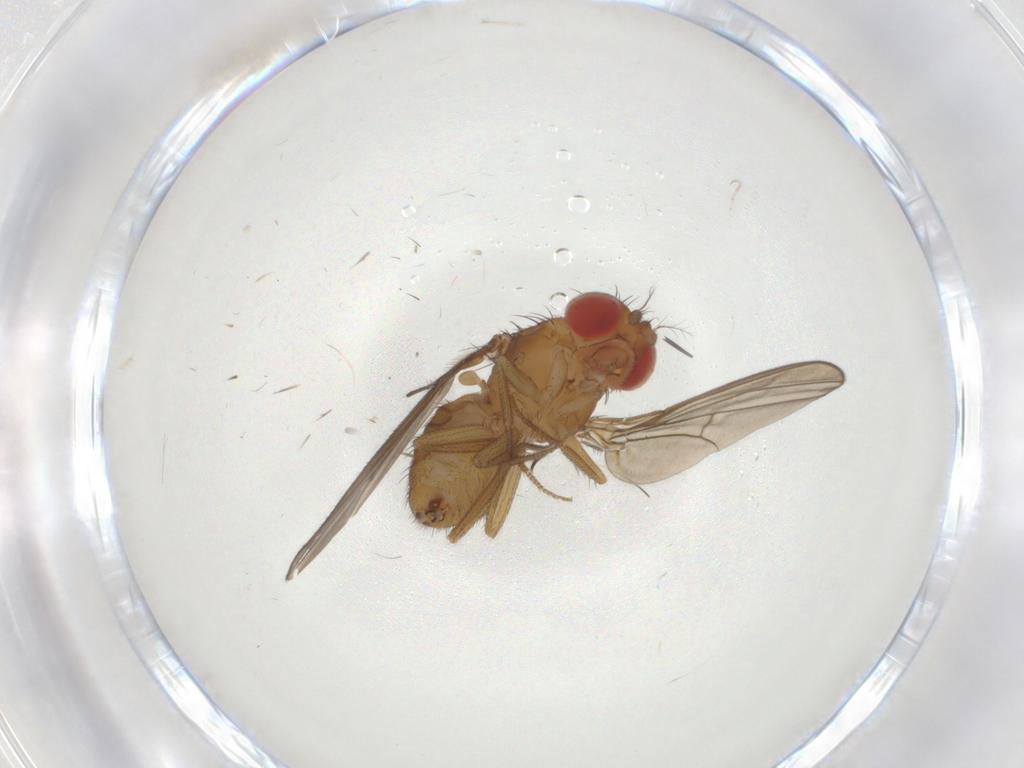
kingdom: Animalia
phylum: Arthropoda
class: Insecta
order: Diptera
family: Drosophilidae
